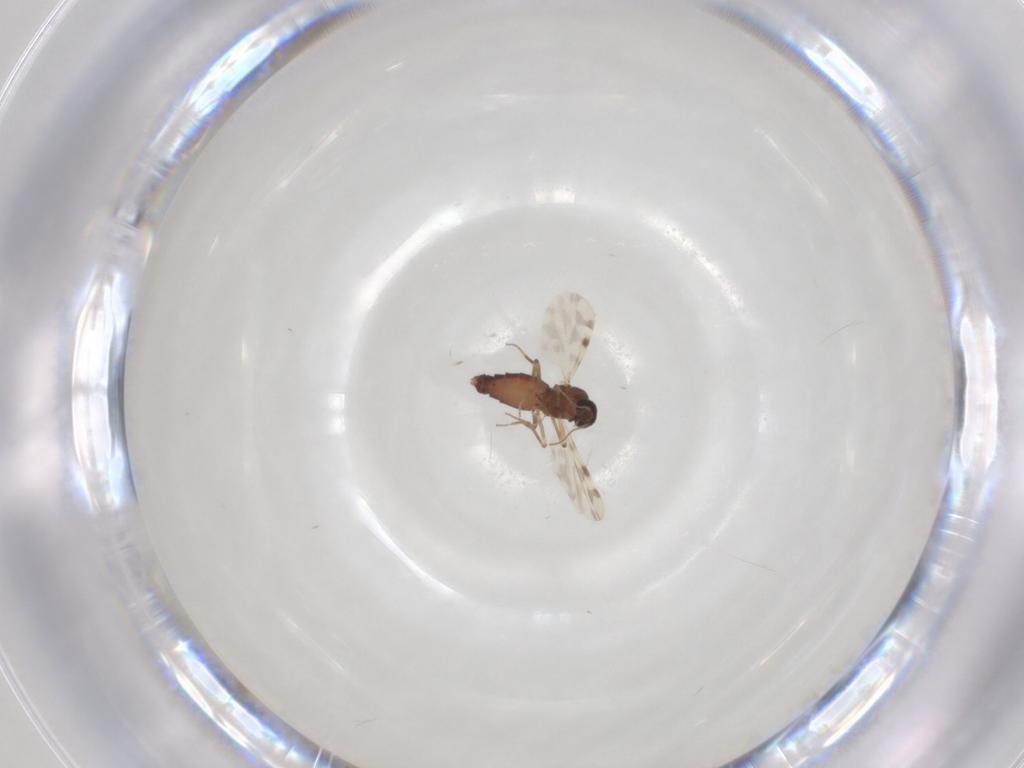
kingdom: Animalia
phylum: Arthropoda
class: Insecta
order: Diptera
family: Ceratopogonidae
